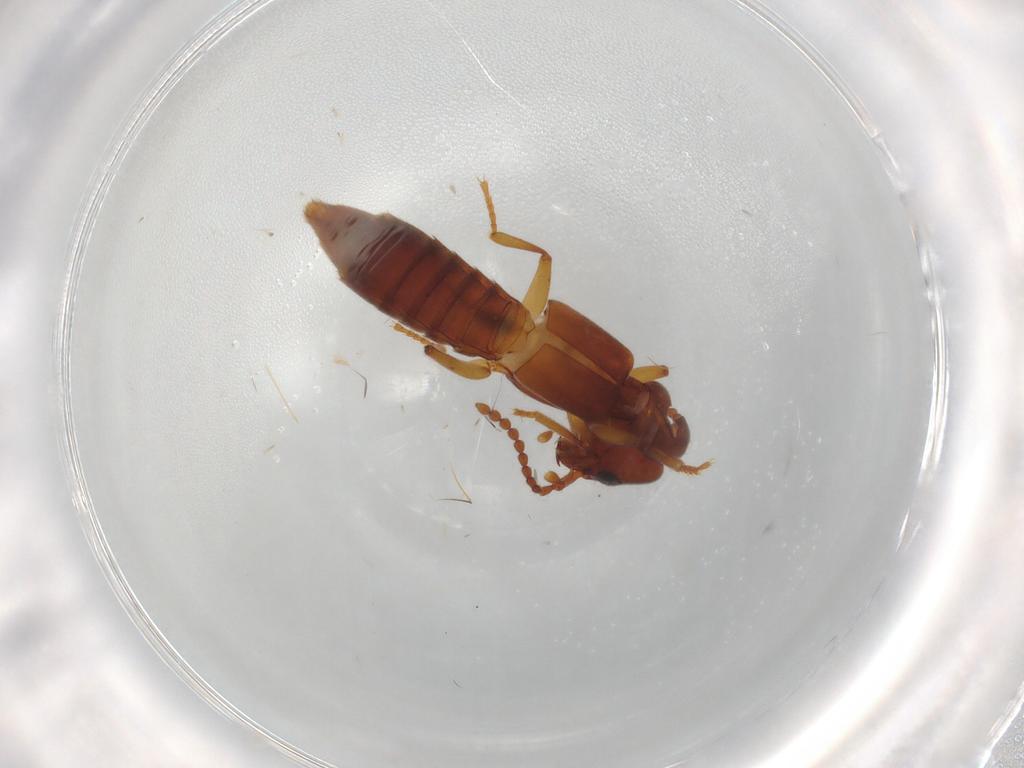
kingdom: Animalia
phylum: Arthropoda
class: Insecta
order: Coleoptera
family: Staphylinidae
